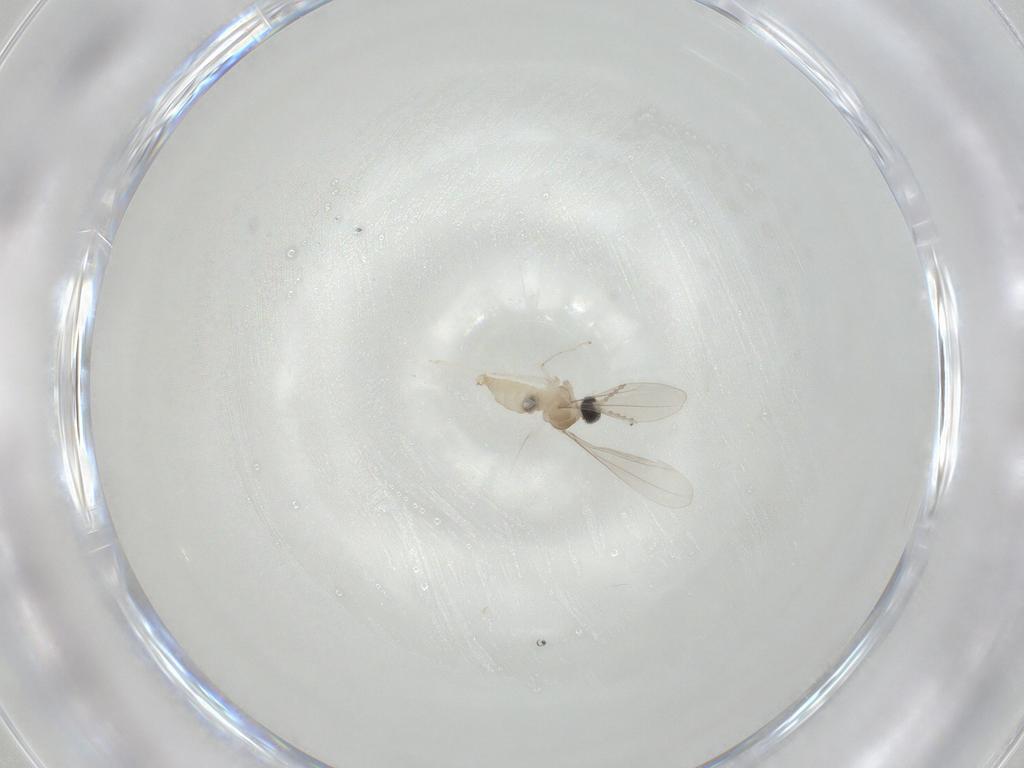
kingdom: Animalia
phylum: Arthropoda
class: Insecta
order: Diptera
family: Cecidomyiidae
